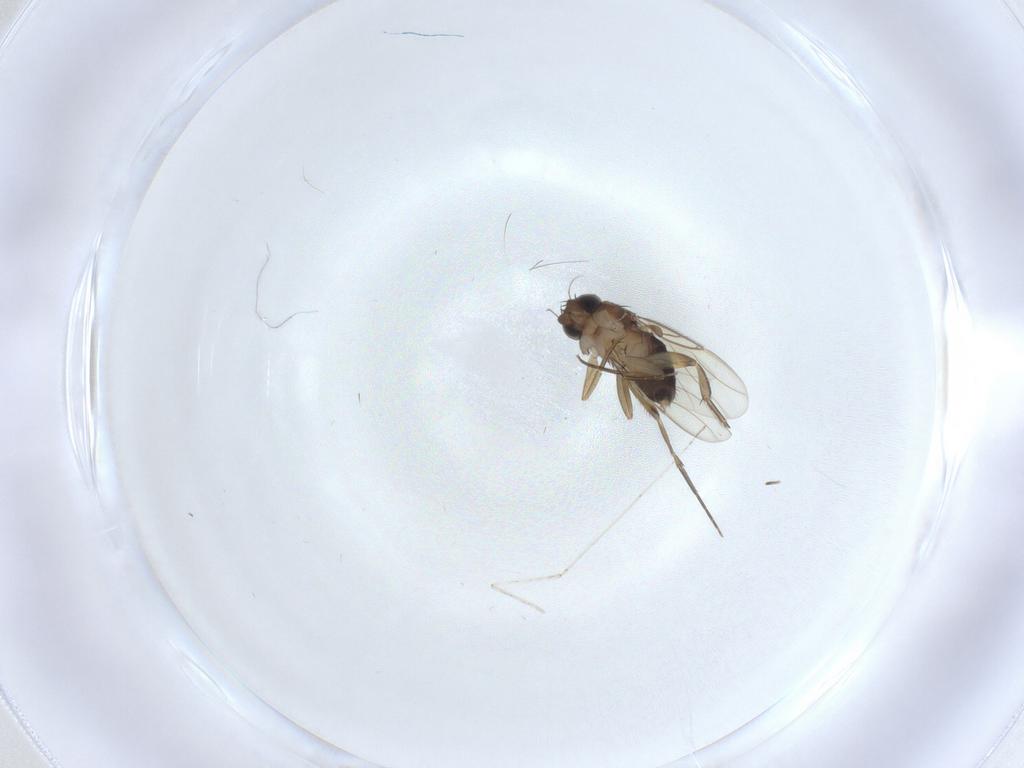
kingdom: Animalia
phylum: Arthropoda
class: Insecta
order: Diptera
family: Phoridae
